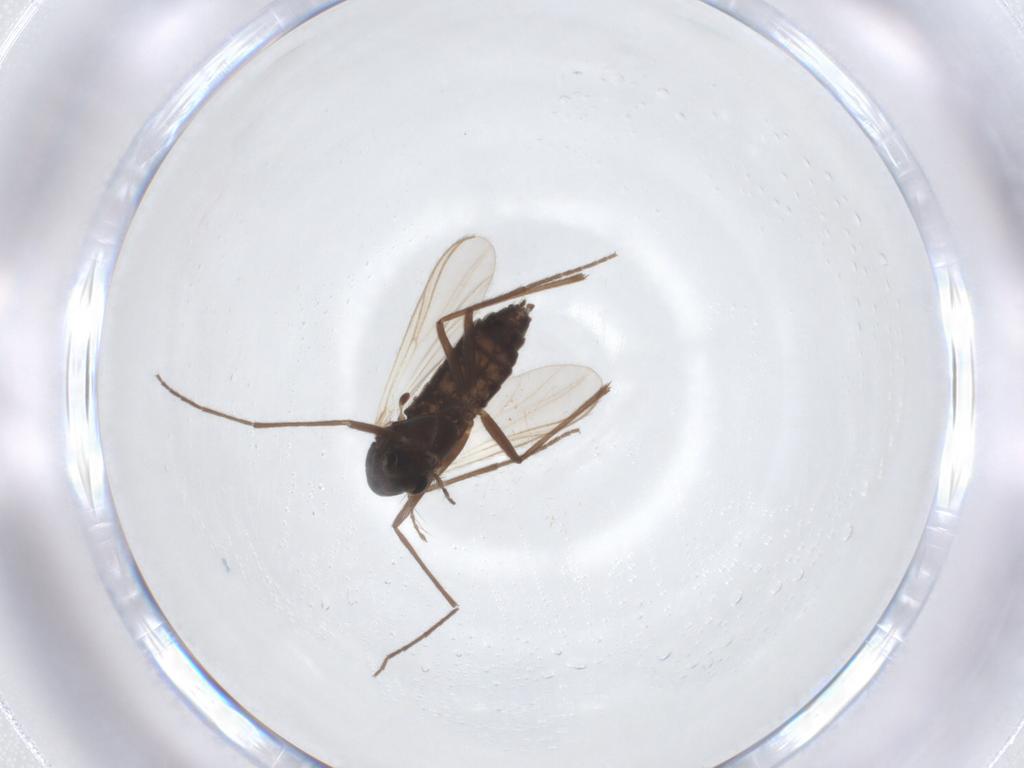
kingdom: Animalia
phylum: Arthropoda
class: Insecta
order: Diptera
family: Chironomidae
